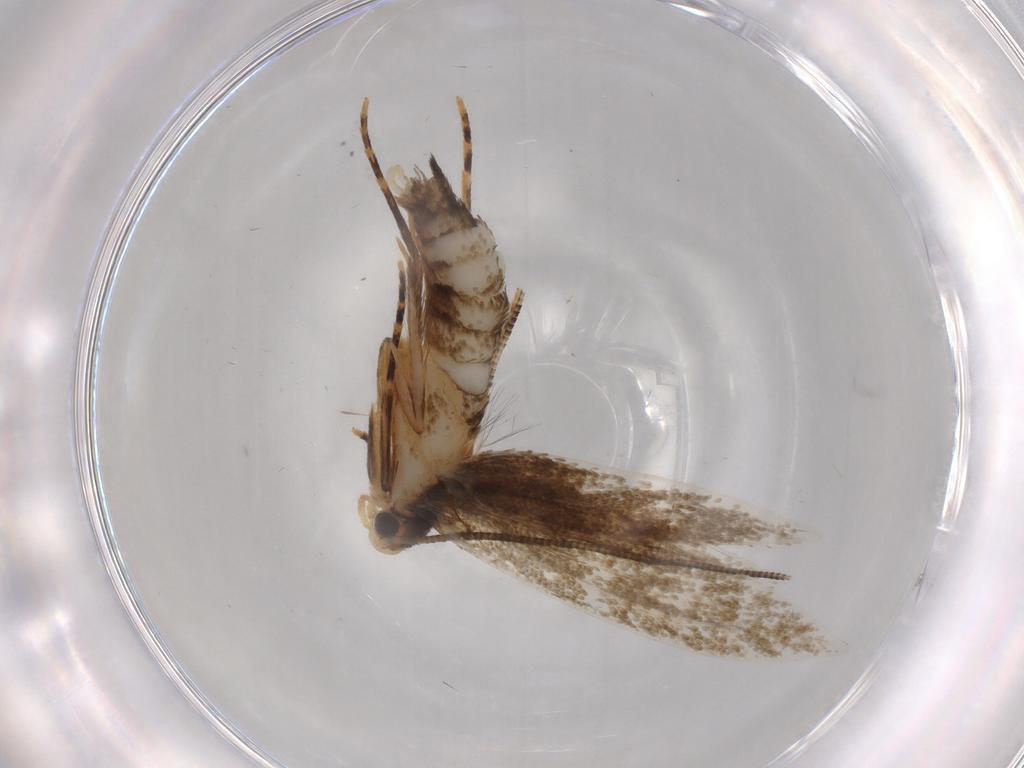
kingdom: Animalia
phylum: Arthropoda
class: Insecta
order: Lepidoptera
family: Tineidae
